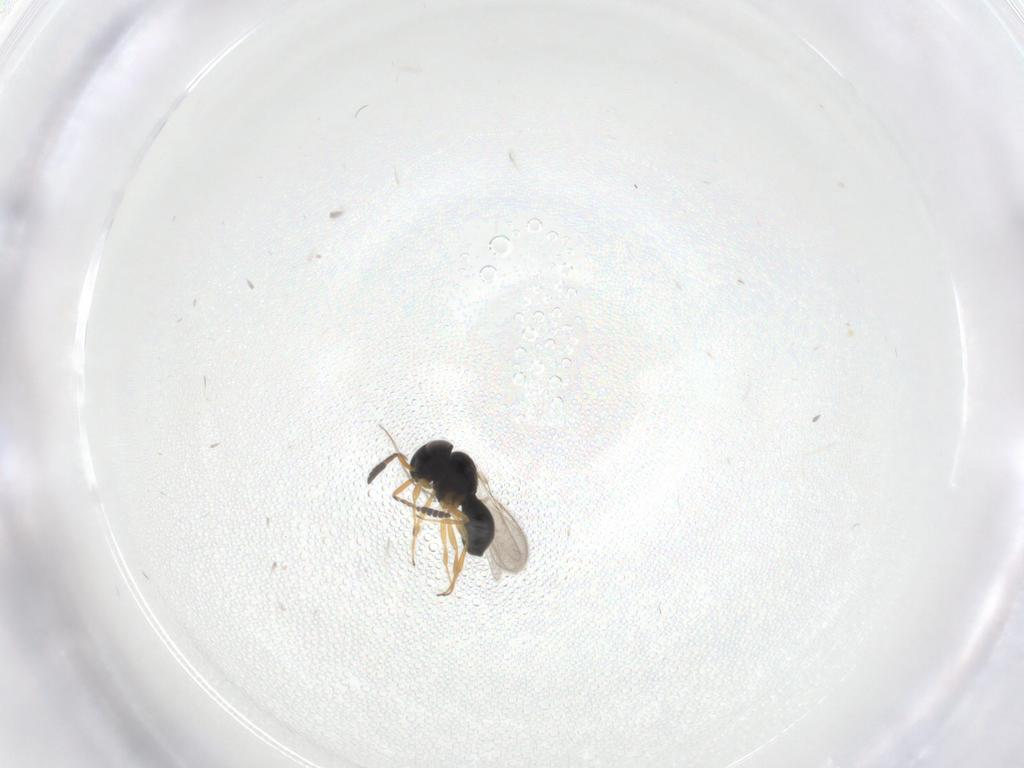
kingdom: Animalia
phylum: Arthropoda
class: Insecta
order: Hymenoptera
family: Scelionidae
